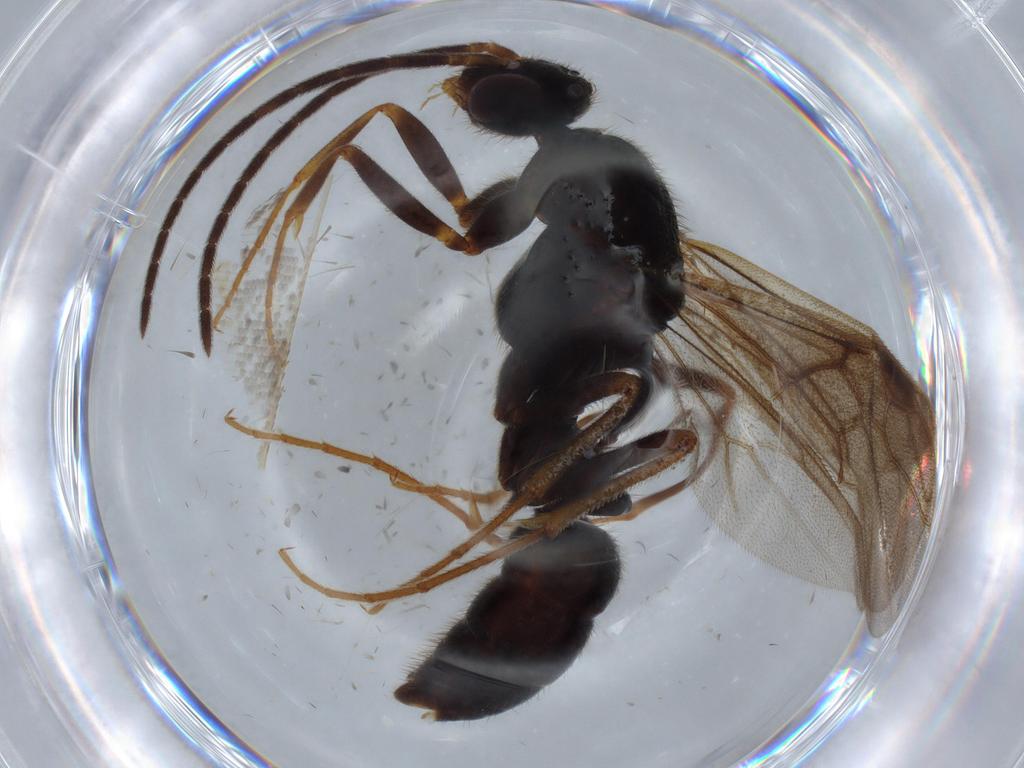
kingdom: Animalia
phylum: Arthropoda
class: Insecta
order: Hymenoptera
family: Formicidae
